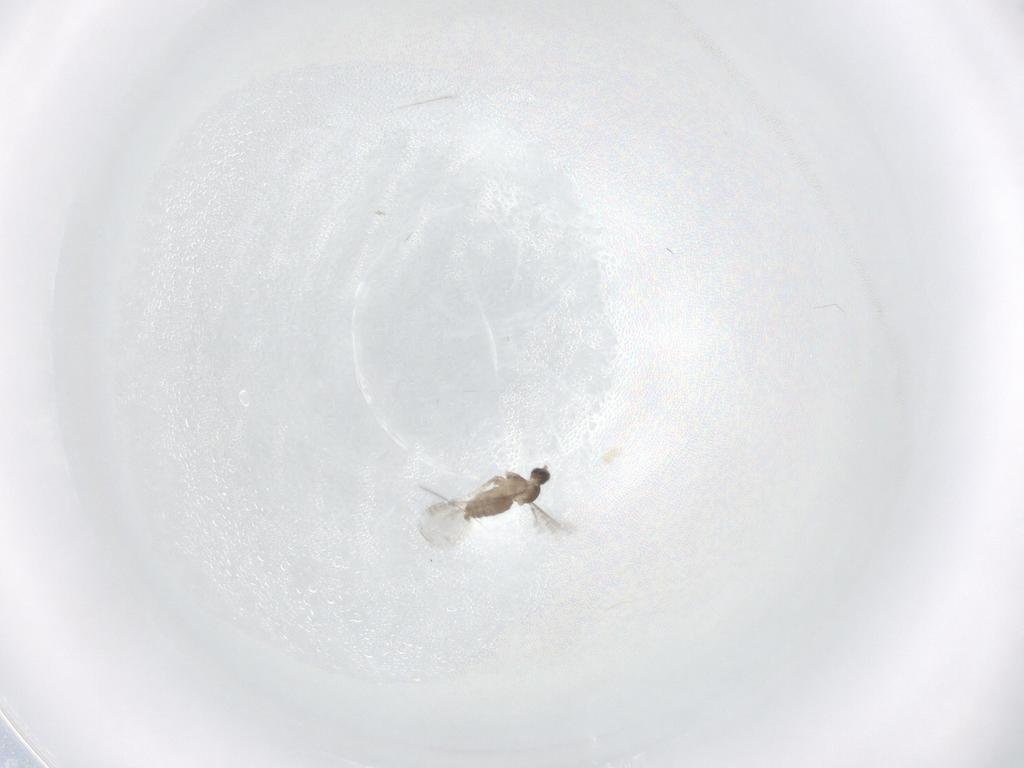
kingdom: Animalia
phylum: Arthropoda
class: Insecta
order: Diptera
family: Cecidomyiidae
